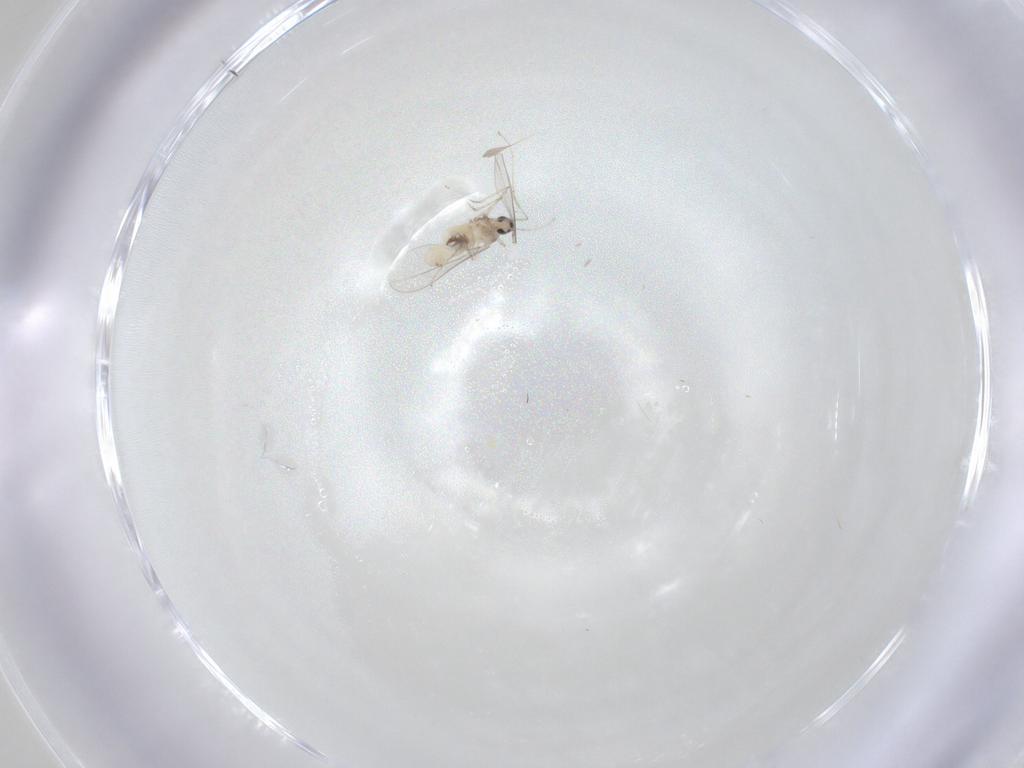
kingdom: Animalia
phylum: Arthropoda
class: Insecta
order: Diptera
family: Cecidomyiidae
